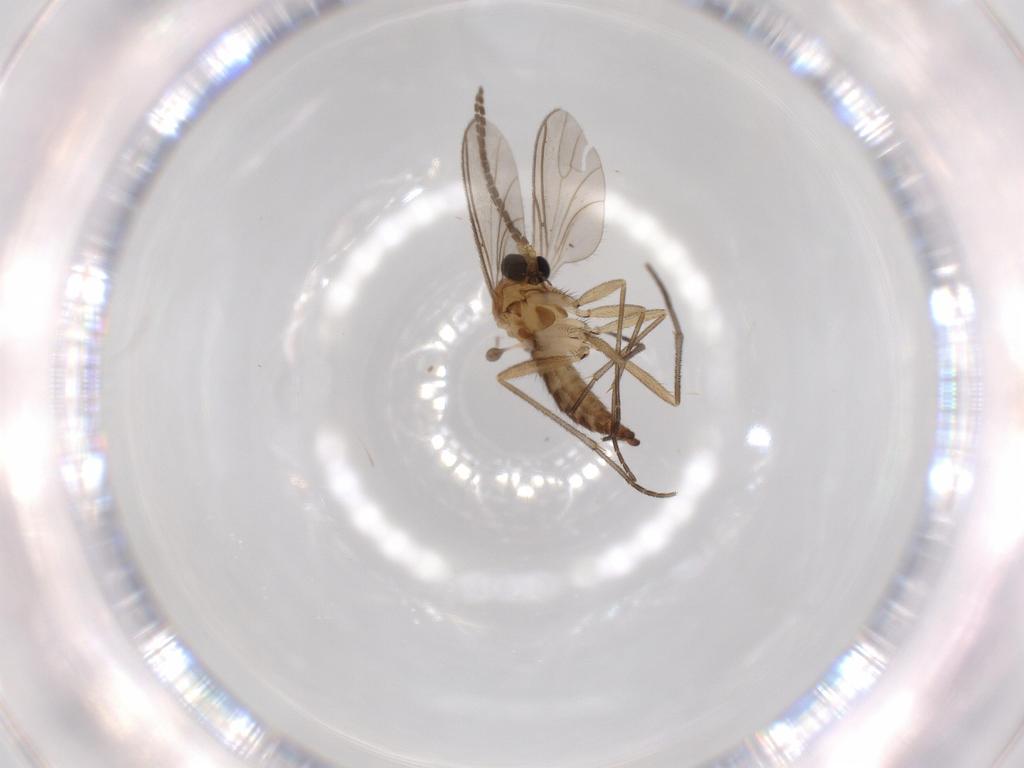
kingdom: Animalia
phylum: Arthropoda
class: Insecta
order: Diptera
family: Sciaridae
